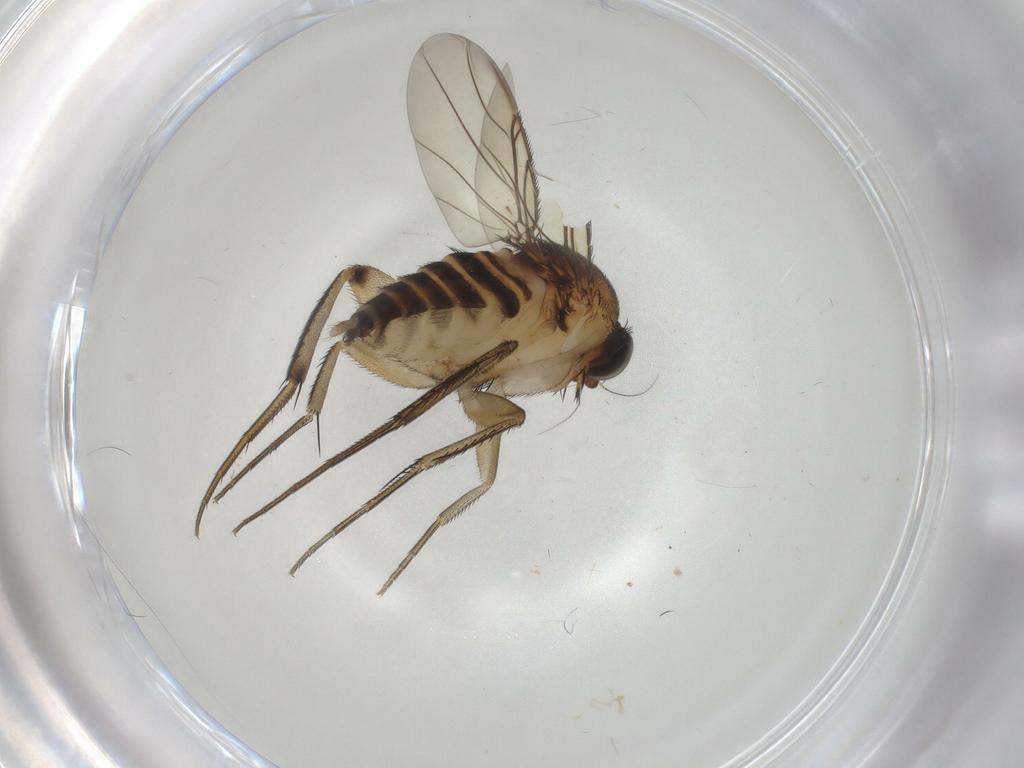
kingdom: Animalia
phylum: Arthropoda
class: Insecta
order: Diptera
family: Phoridae
